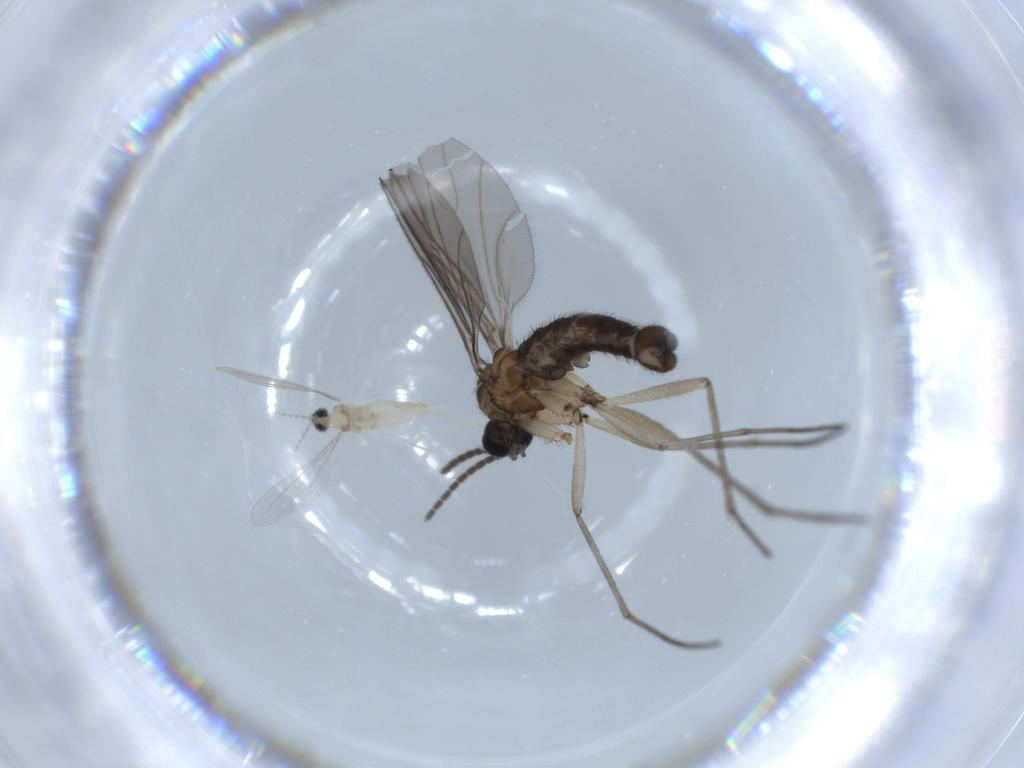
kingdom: Animalia
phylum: Arthropoda
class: Insecta
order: Diptera
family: Sciaridae
